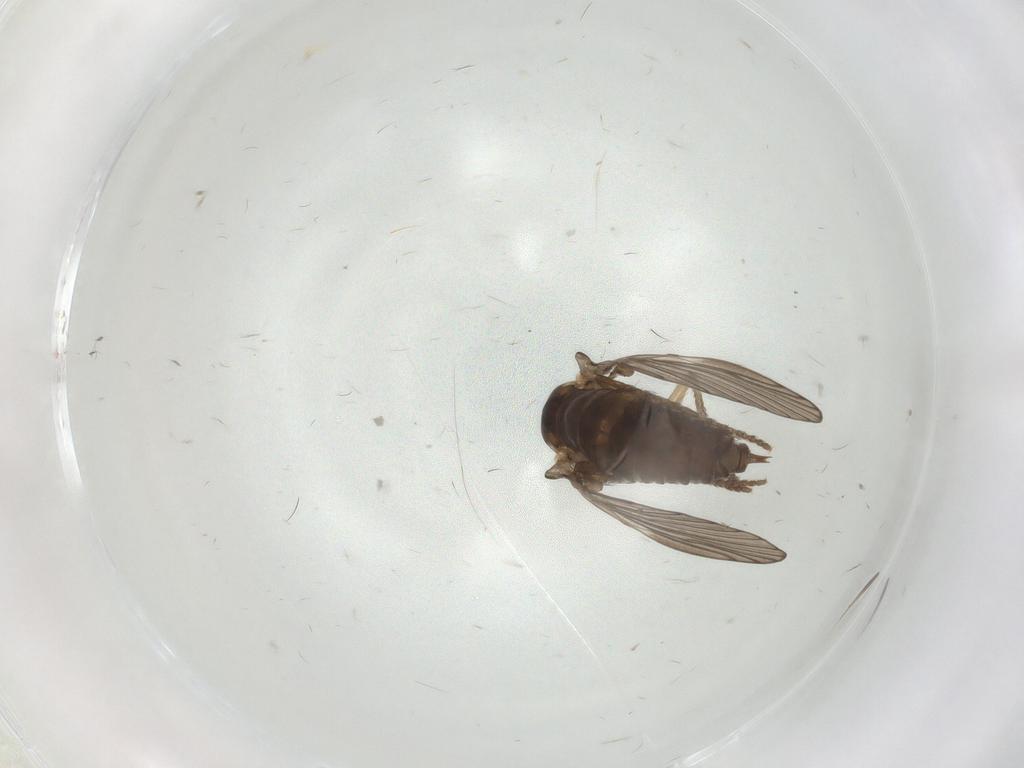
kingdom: Animalia
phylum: Arthropoda
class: Insecta
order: Diptera
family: Psychodidae
